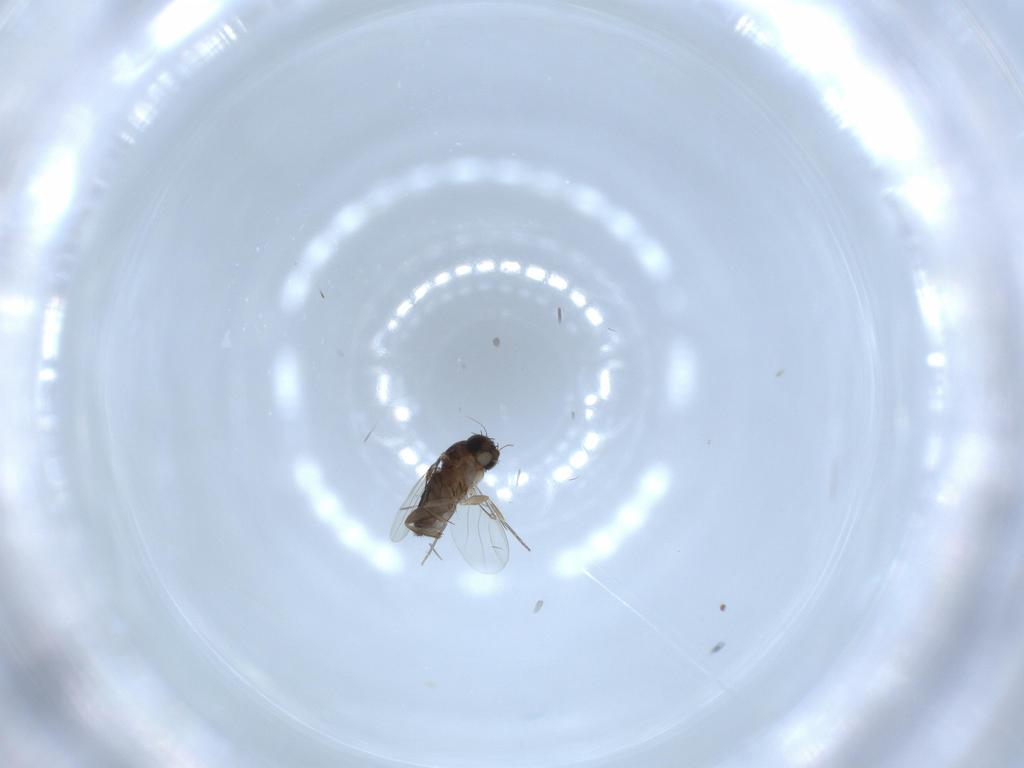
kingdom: Animalia
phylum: Arthropoda
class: Insecta
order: Diptera
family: Phoridae
